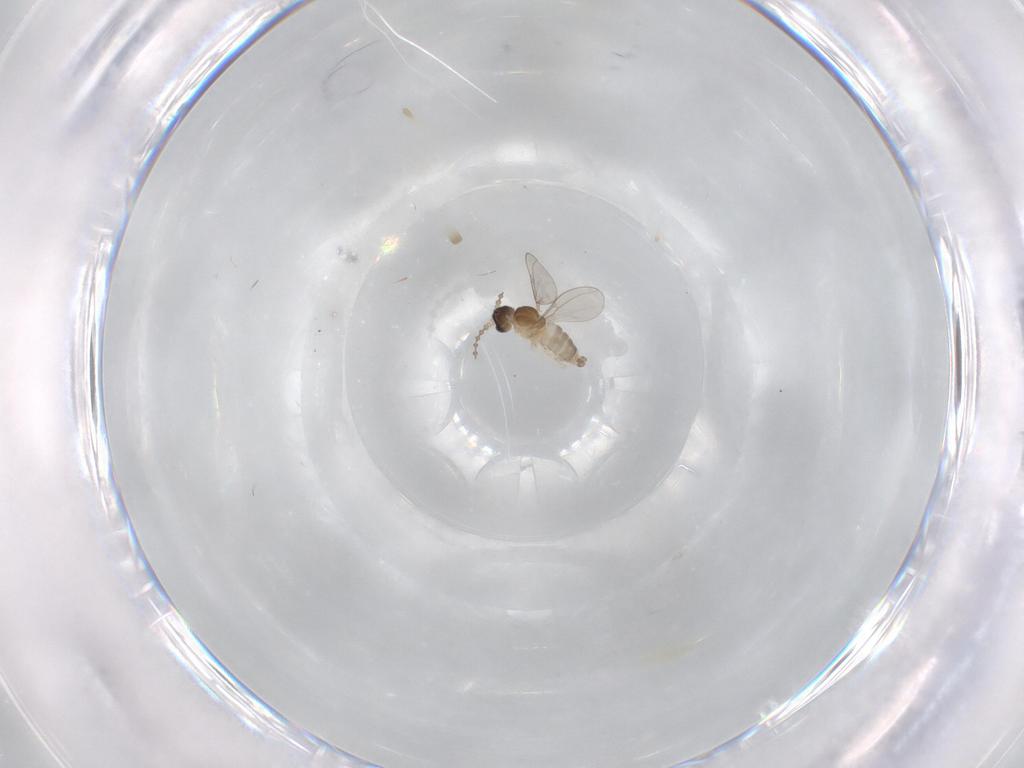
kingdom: Animalia
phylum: Arthropoda
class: Insecta
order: Diptera
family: Cecidomyiidae
